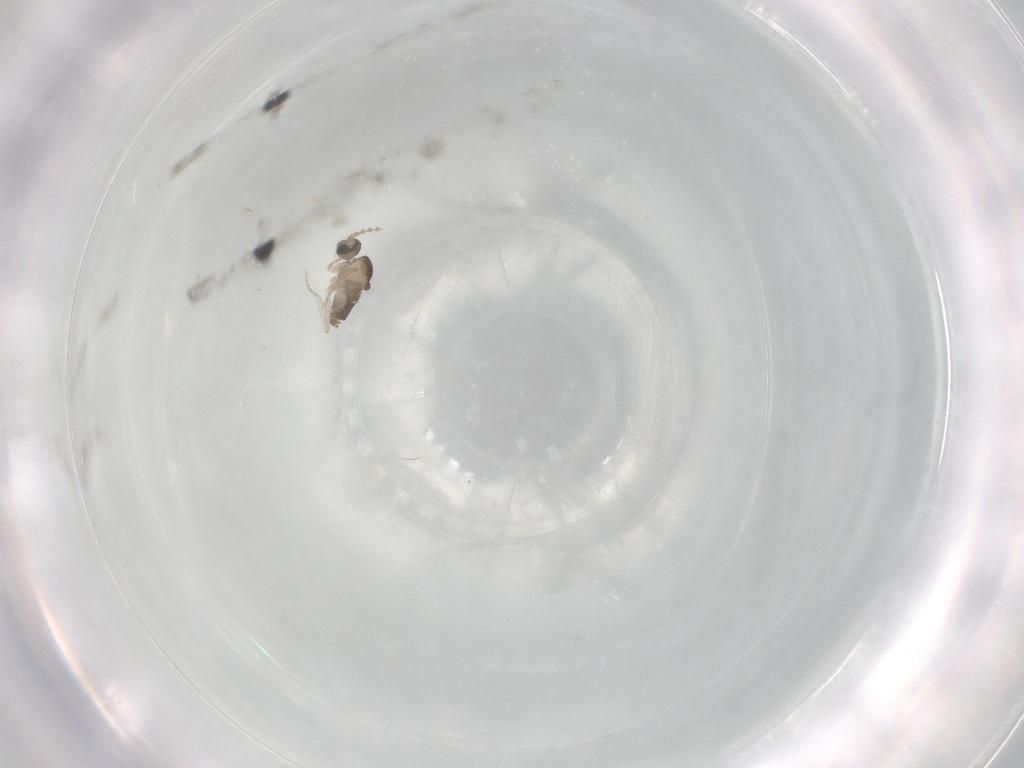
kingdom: Animalia
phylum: Arthropoda
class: Insecta
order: Diptera
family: Cecidomyiidae
